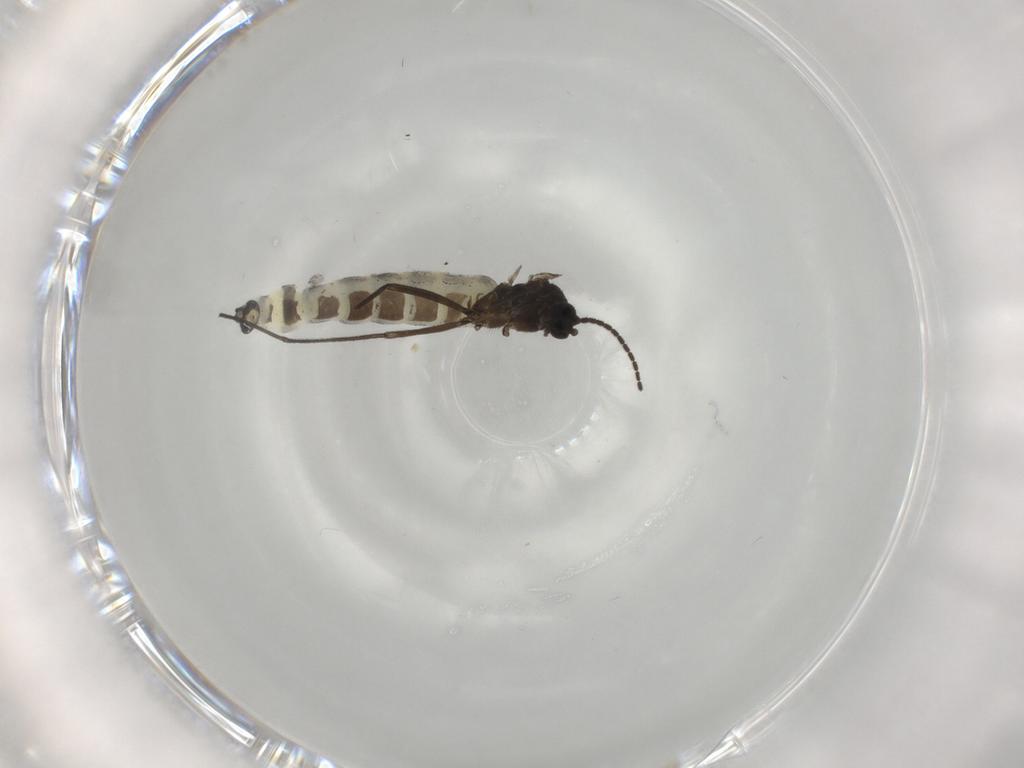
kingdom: Animalia
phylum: Arthropoda
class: Insecta
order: Diptera
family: Sciaridae
